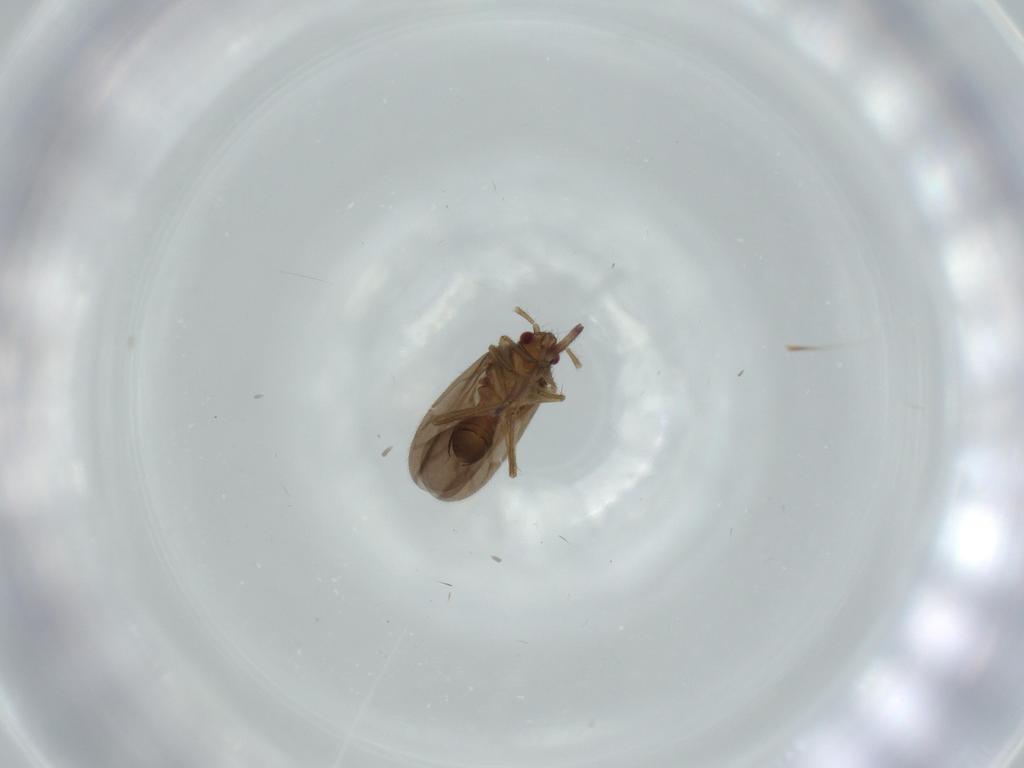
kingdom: Animalia
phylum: Arthropoda
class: Insecta
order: Hemiptera
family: Ceratocombidae
